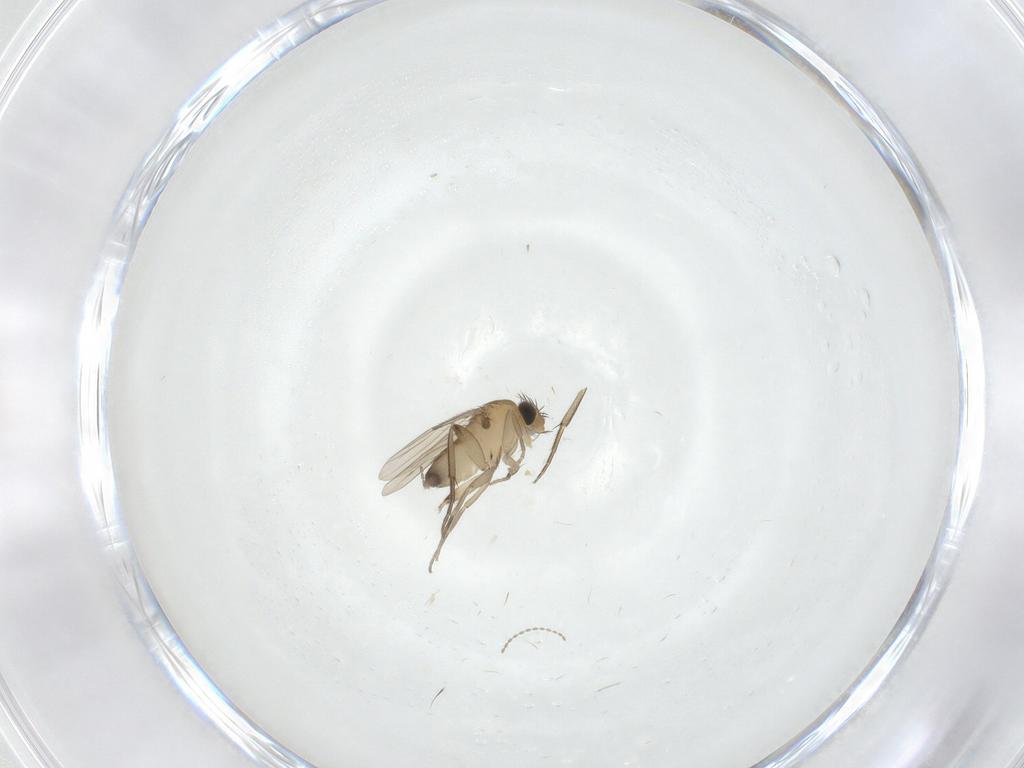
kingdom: Animalia
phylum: Arthropoda
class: Insecta
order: Diptera
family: Phoridae
